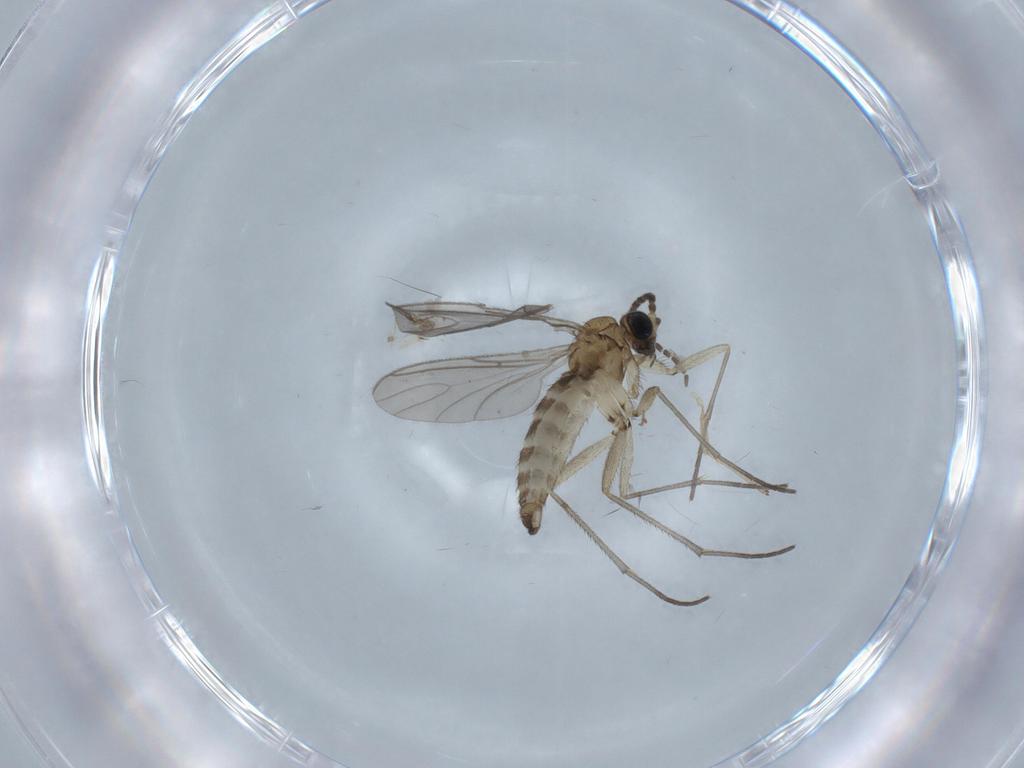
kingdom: Animalia
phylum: Arthropoda
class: Insecta
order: Diptera
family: Sciaridae
